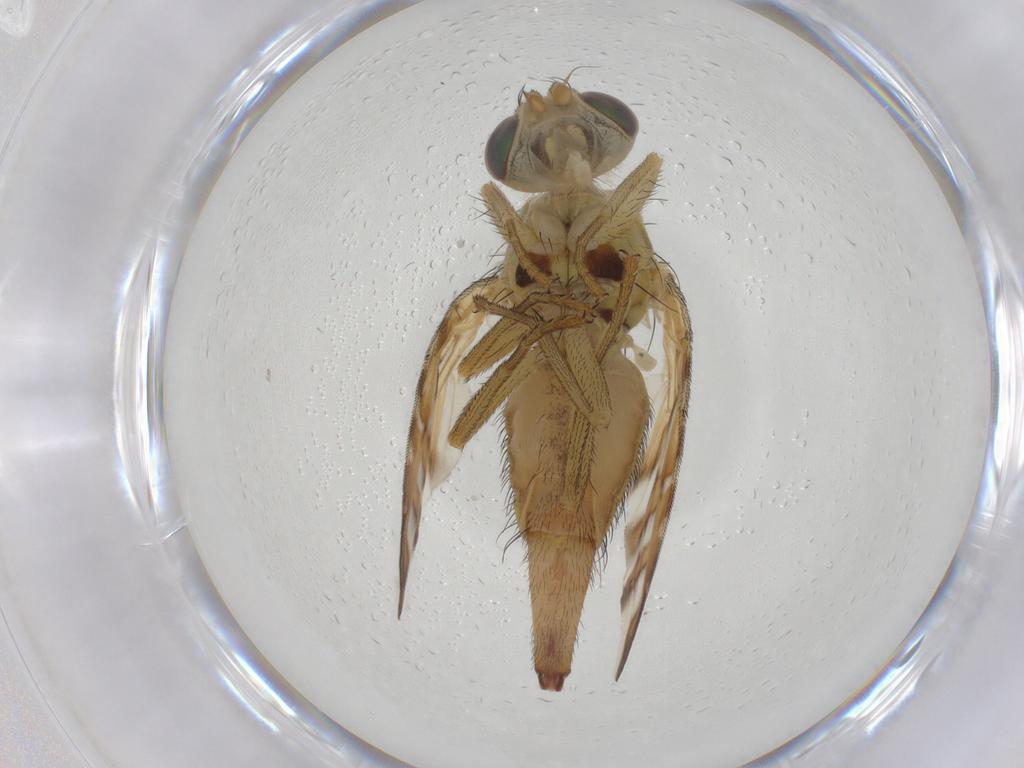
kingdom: Animalia
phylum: Arthropoda
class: Insecta
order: Diptera
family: Tephritidae
